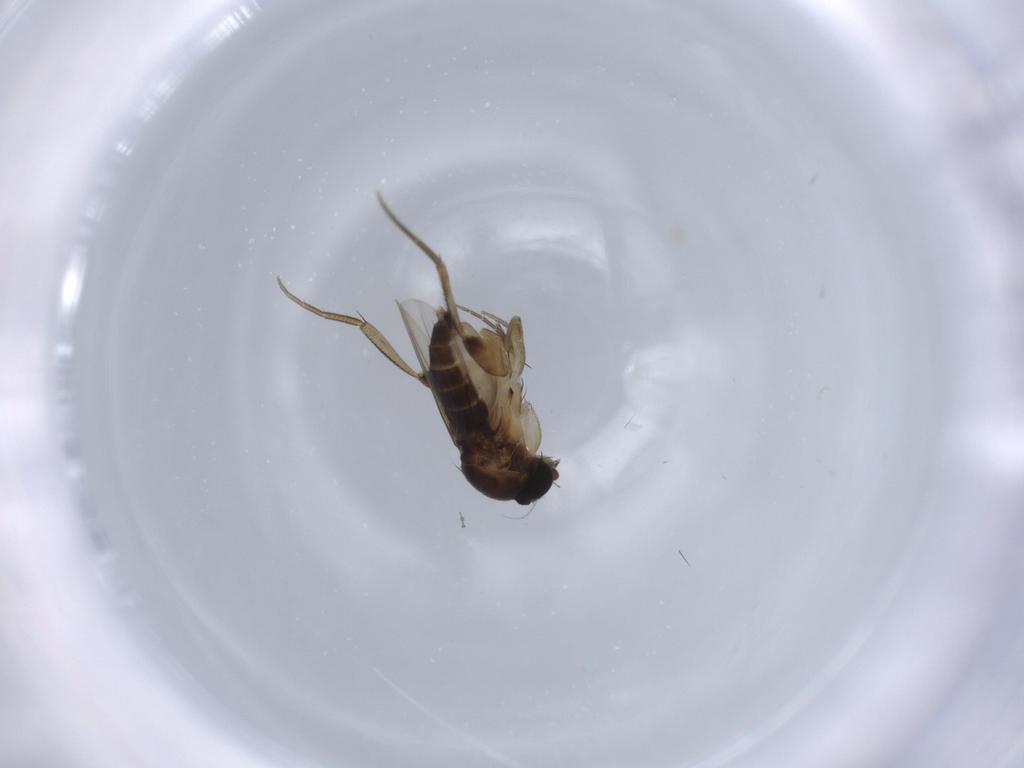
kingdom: Animalia
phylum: Arthropoda
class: Insecta
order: Diptera
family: Phoridae
